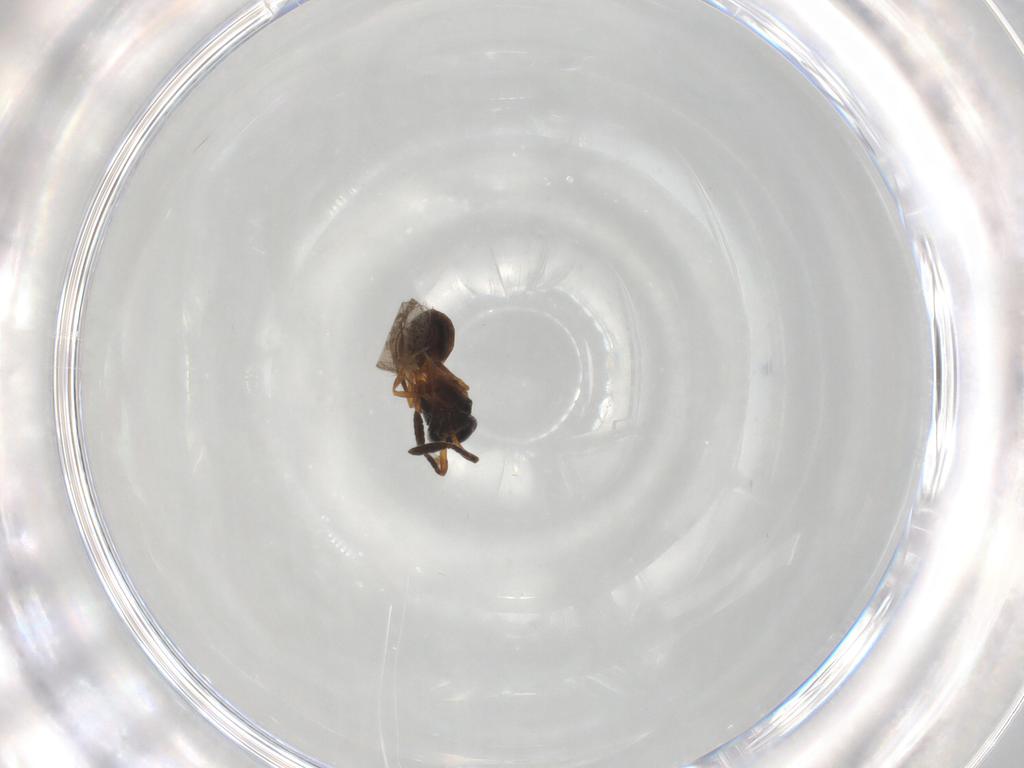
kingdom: Animalia
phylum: Arthropoda
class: Insecta
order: Hymenoptera
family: Scelionidae
